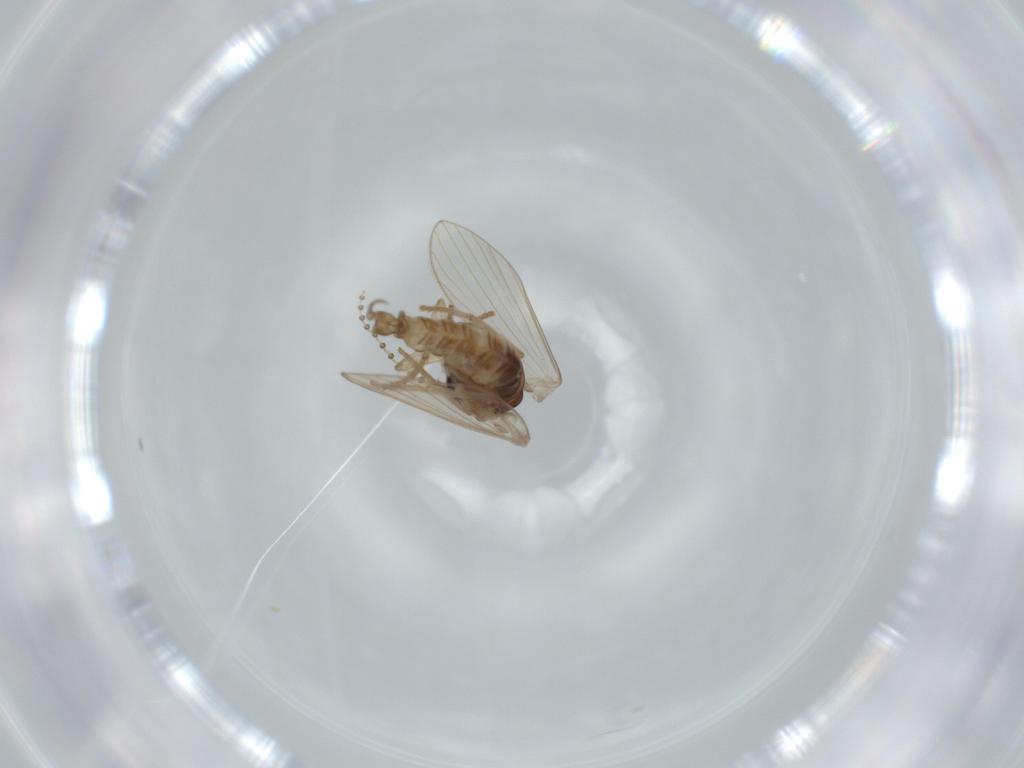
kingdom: Animalia
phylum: Arthropoda
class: Insecta
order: Diptera
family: Psychodidae
